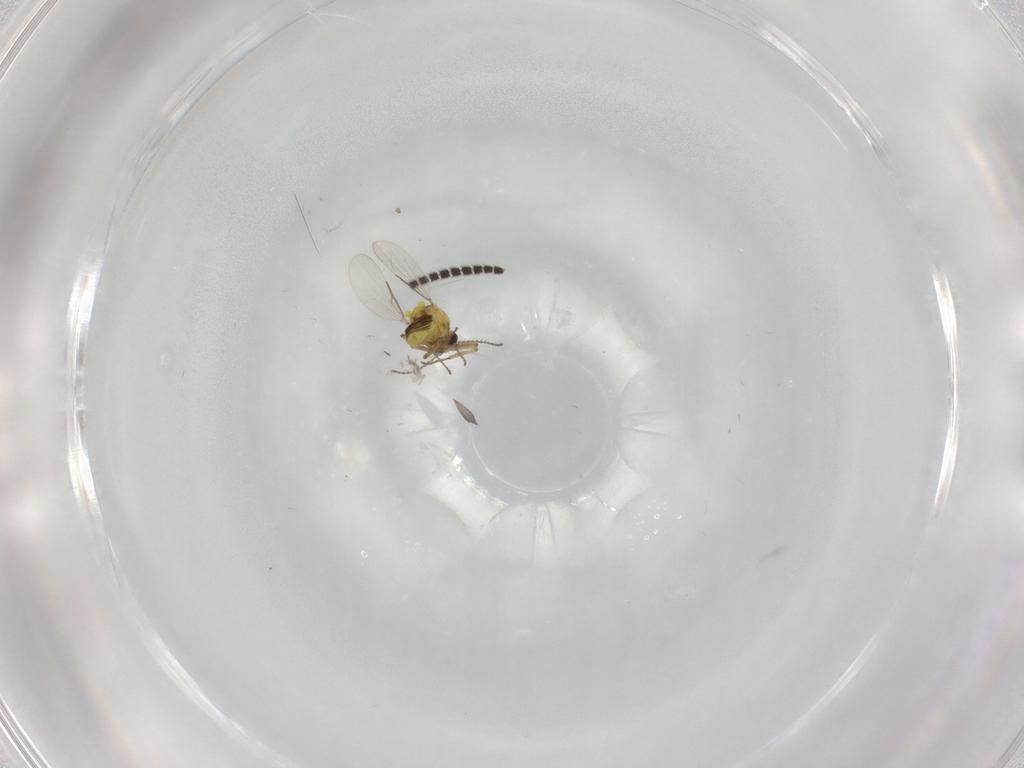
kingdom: Animalia
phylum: Arthropoda
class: Insecta
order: Diptera
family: Sciaridae
